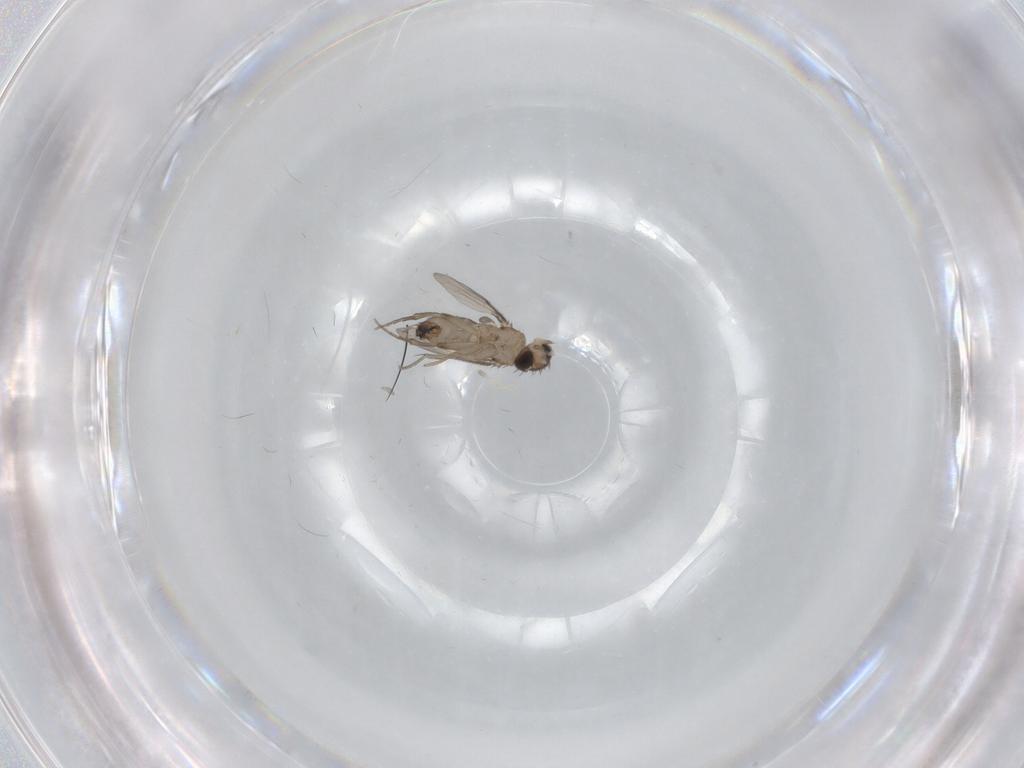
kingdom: Animalia
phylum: Arthropoda
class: Insecta
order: Diptera
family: Phoridae
